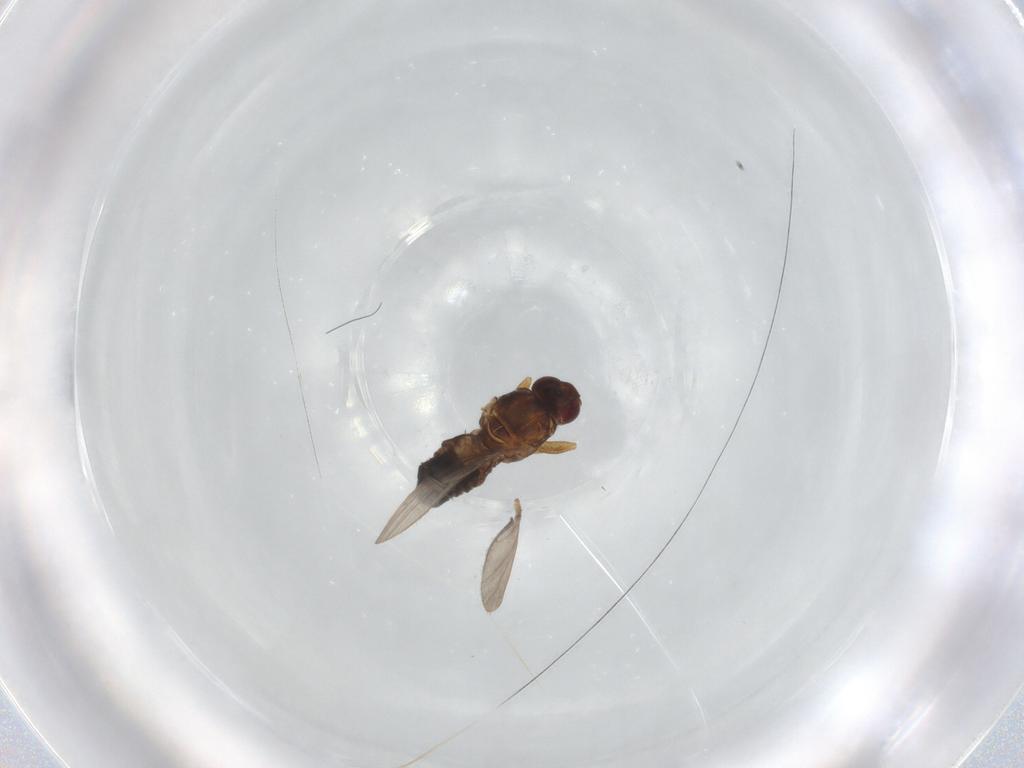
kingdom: Animalia
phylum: Arthropoda
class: Insecta
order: Diptera
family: Sphaeroceridae
